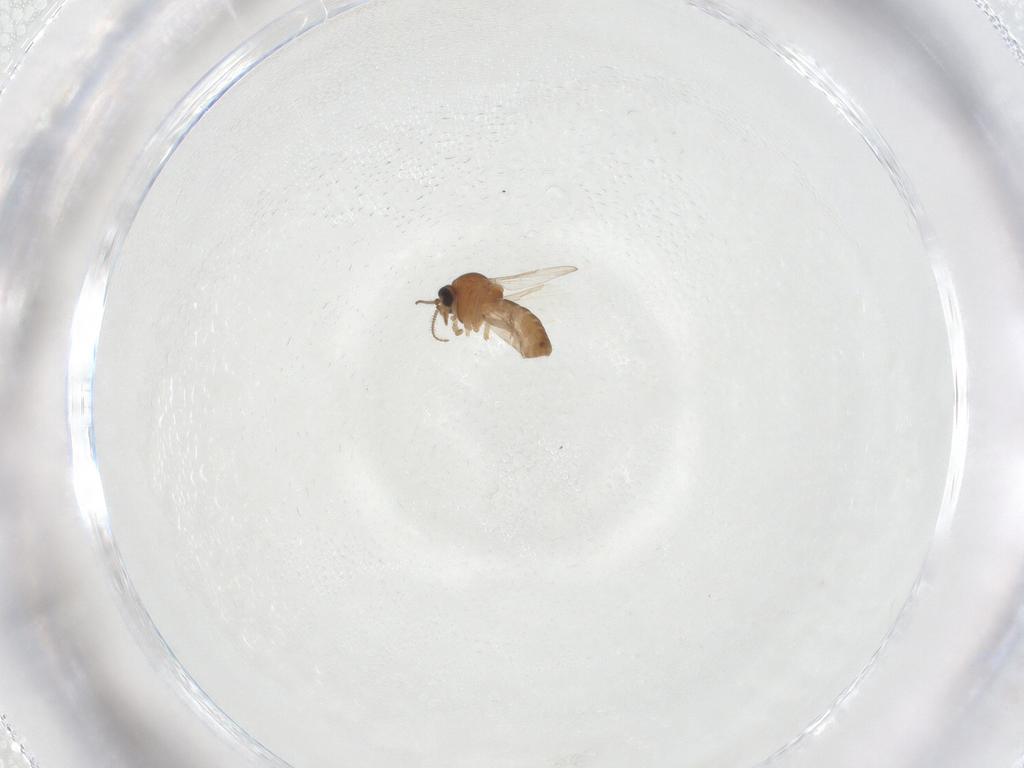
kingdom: Animalia
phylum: Arthropoda
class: Insecta
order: Diptera
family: Ceratopogonidae
